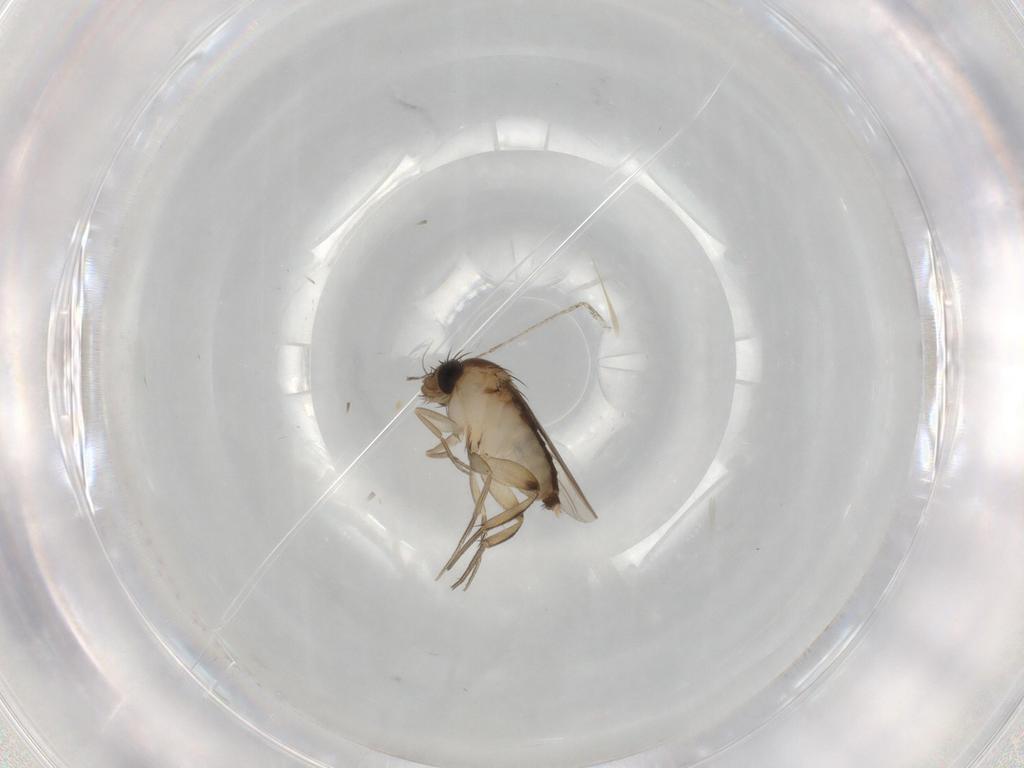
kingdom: Animalia
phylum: Arthropoda
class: Insecta
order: Diptera
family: Phoridae
